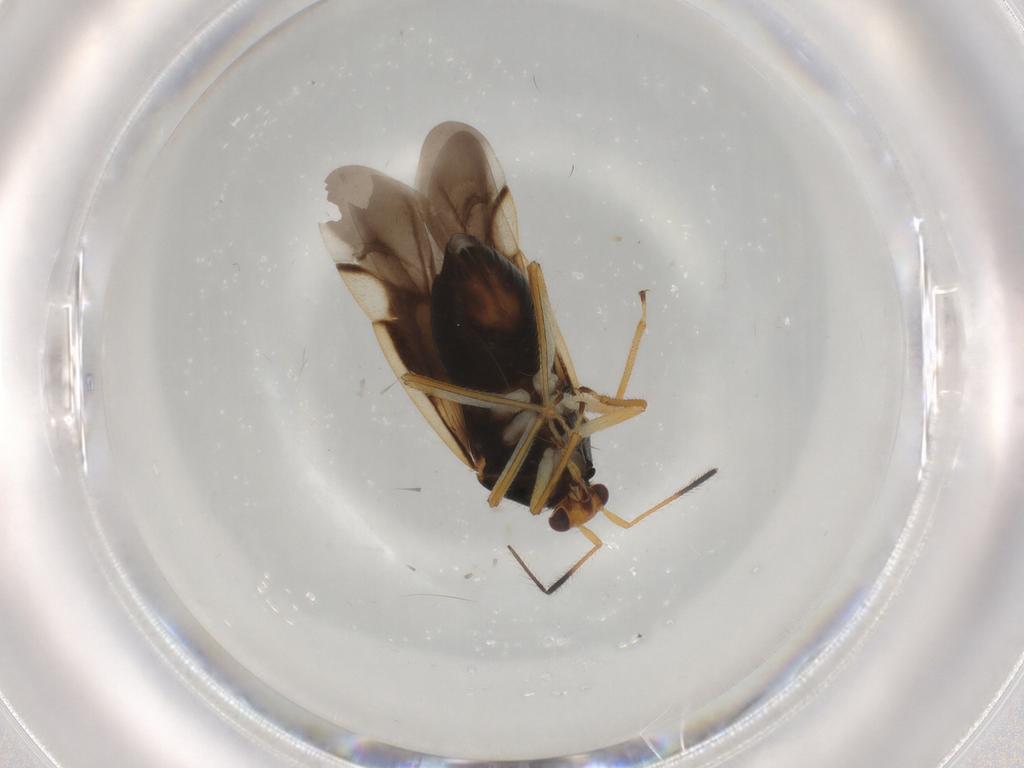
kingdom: Animalia
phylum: Arthropoda
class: Insecta
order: Hemiptera
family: Miridae
